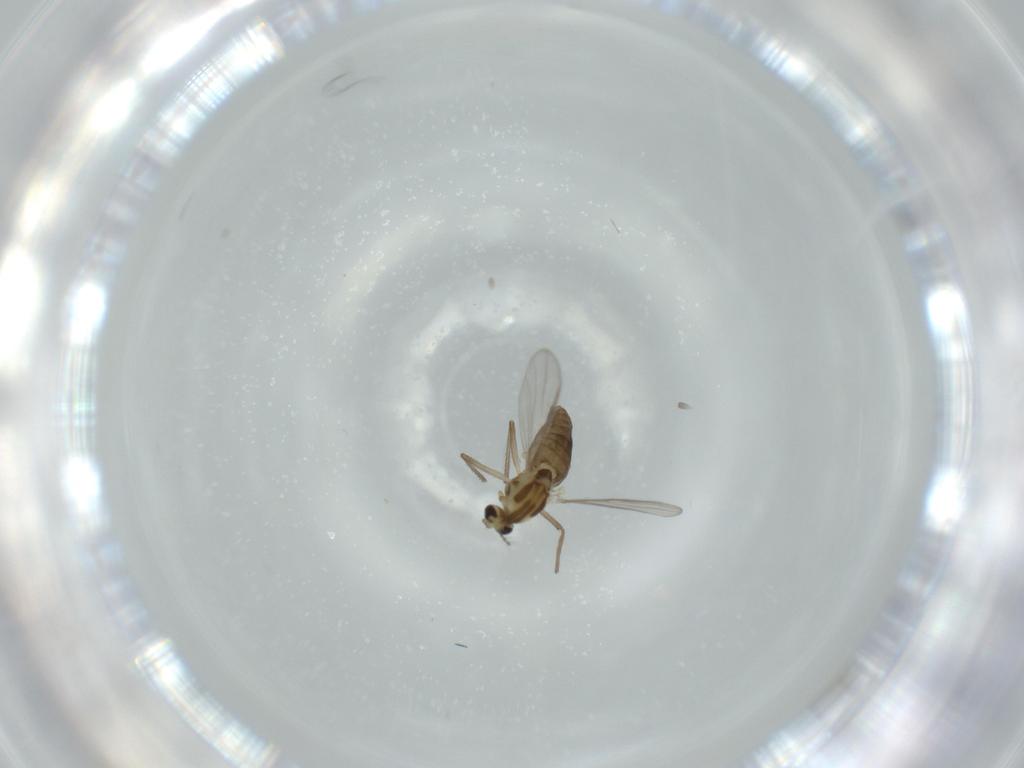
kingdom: Animalia
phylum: Arthropoda
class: Insecta
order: Diptera
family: Chironomidae
